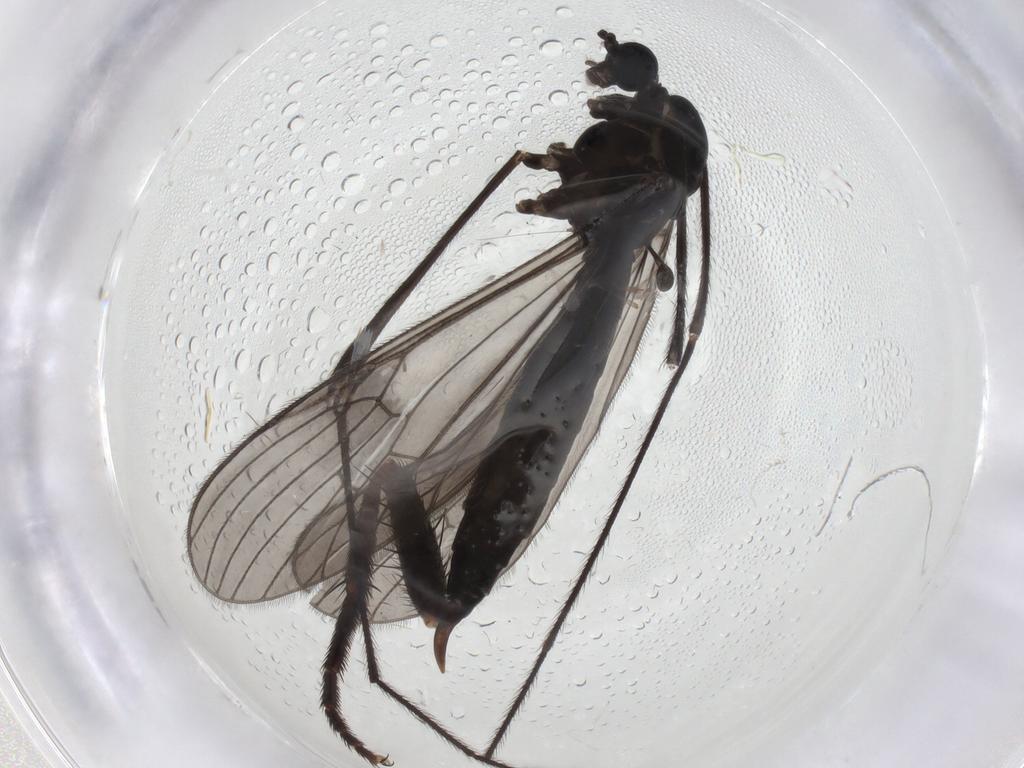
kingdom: Animalia
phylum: Arthropoda
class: Insecta
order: Diptera
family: Limoniidae
